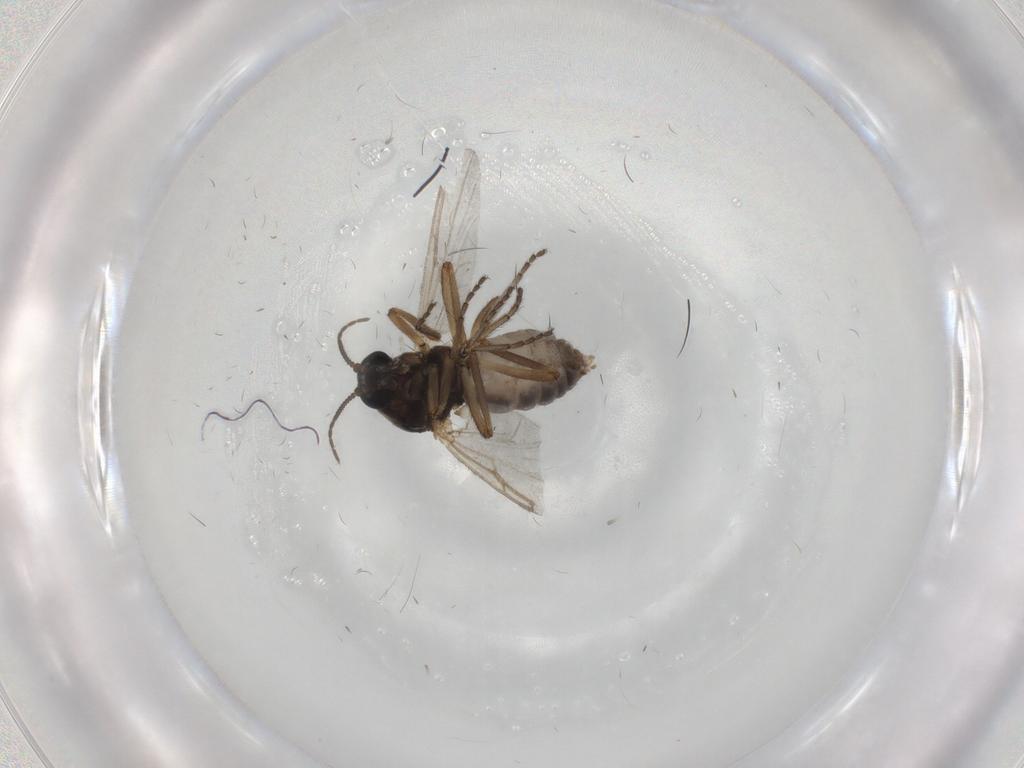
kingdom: Animalia
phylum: Arthropoda
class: Insecta
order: Diptera
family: Ceratopogonidae
